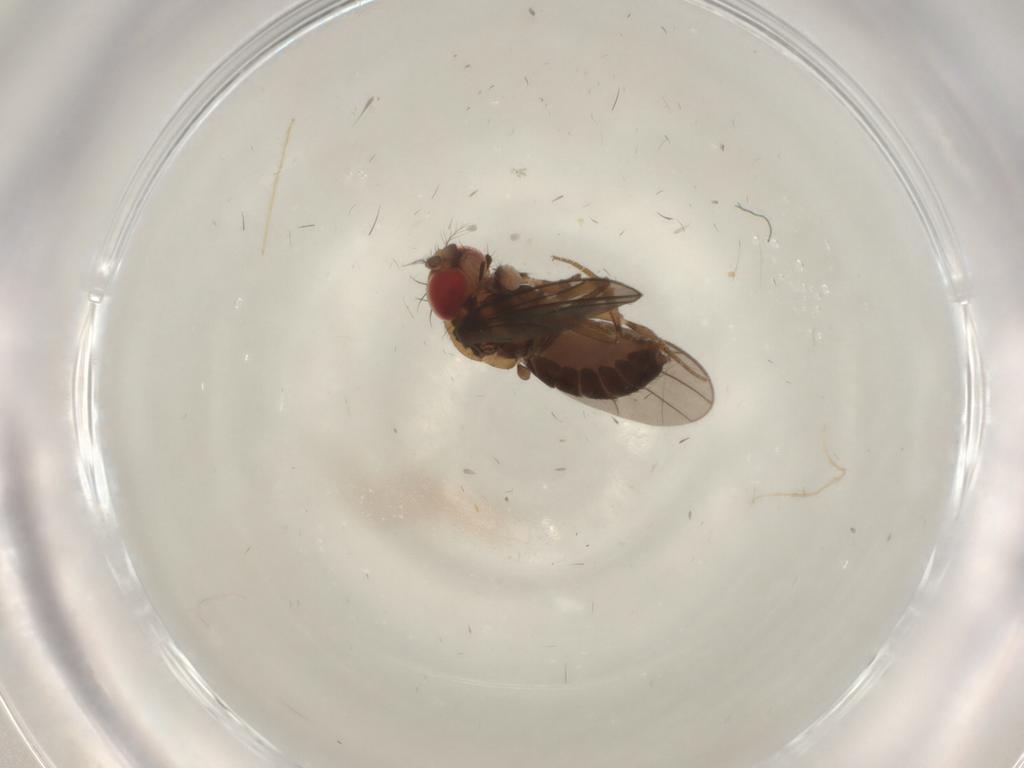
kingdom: Animalia
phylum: Arthropoda
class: Insecta
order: Diptera
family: Drosophilidae
